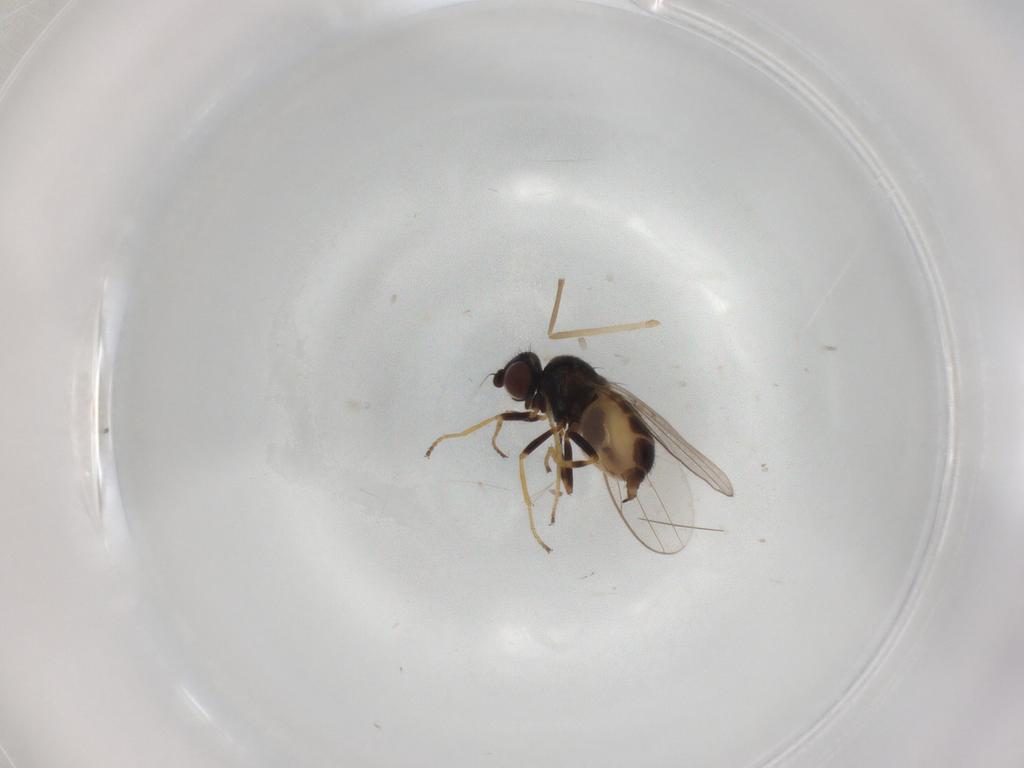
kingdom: Animalia
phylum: Arthropoda
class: Insecta
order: Diptera
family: Chloropidae
